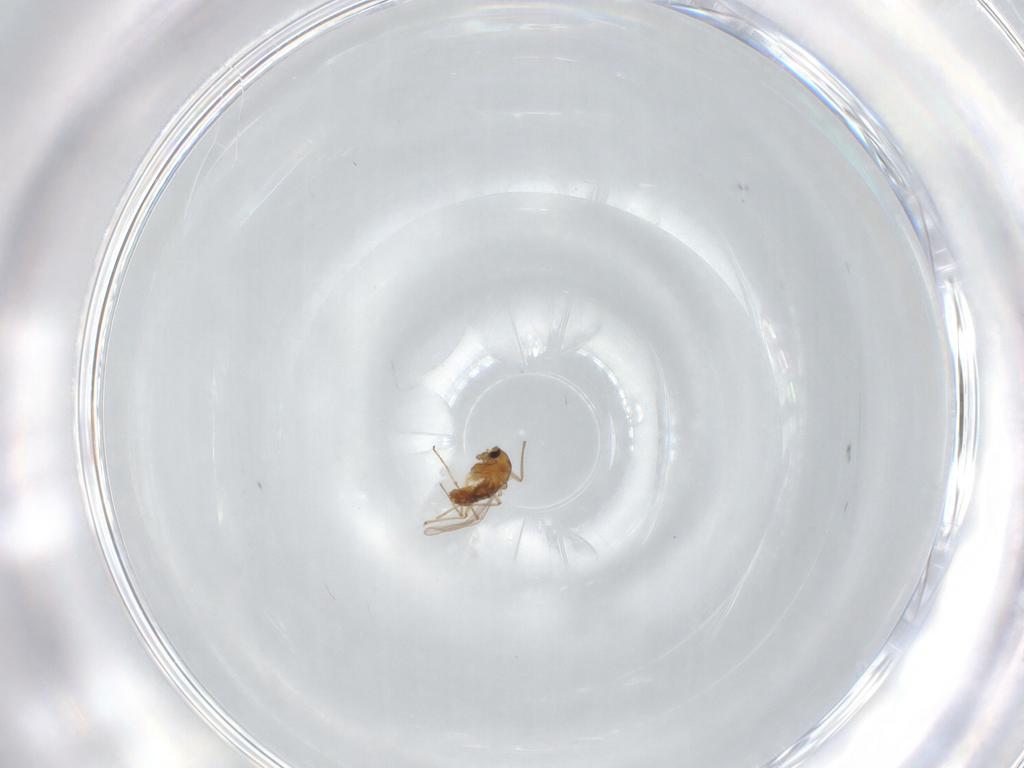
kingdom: Animalia
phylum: Arthropoda
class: Insecta
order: Diptera
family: Chironomidae
